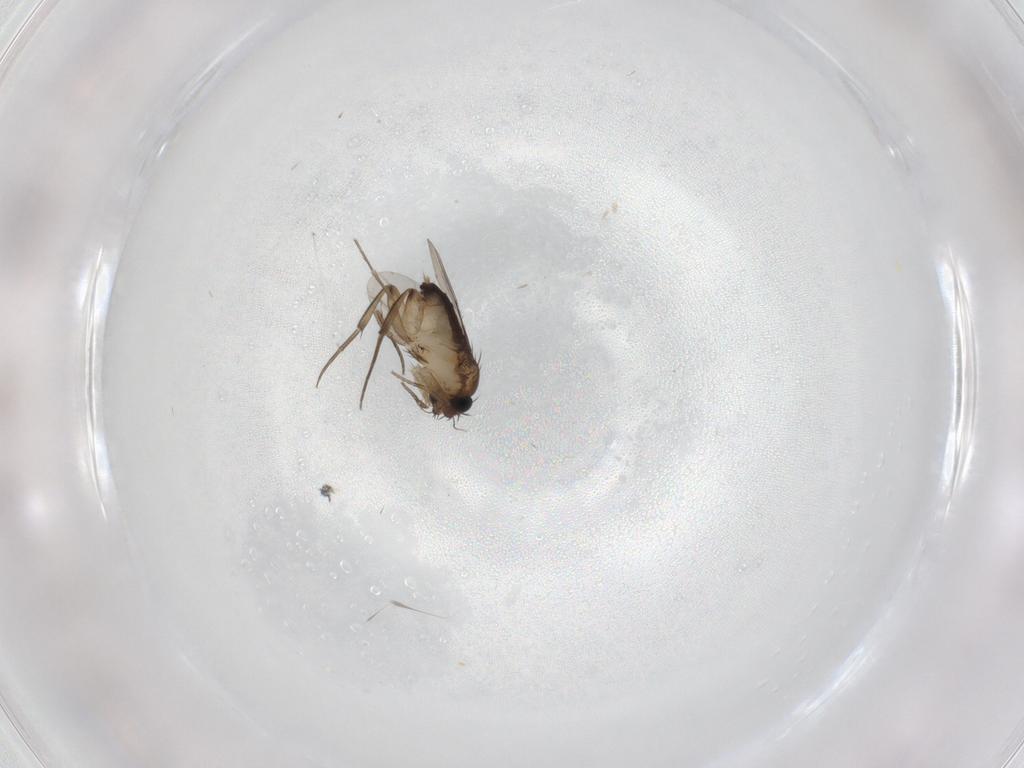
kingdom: Animalia
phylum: Arthropoda
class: Insecta
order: Diptera
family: Phoridae
